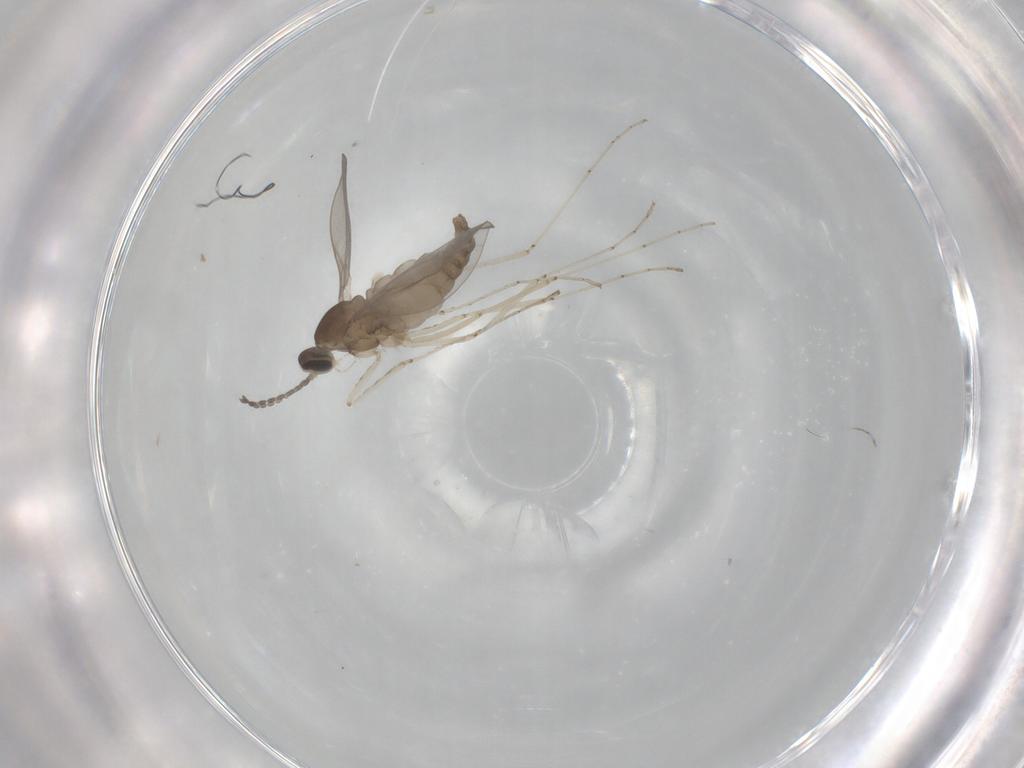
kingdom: Animalia
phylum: Arthropoda
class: Insecta
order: Diptera
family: Cecidomyiidae
